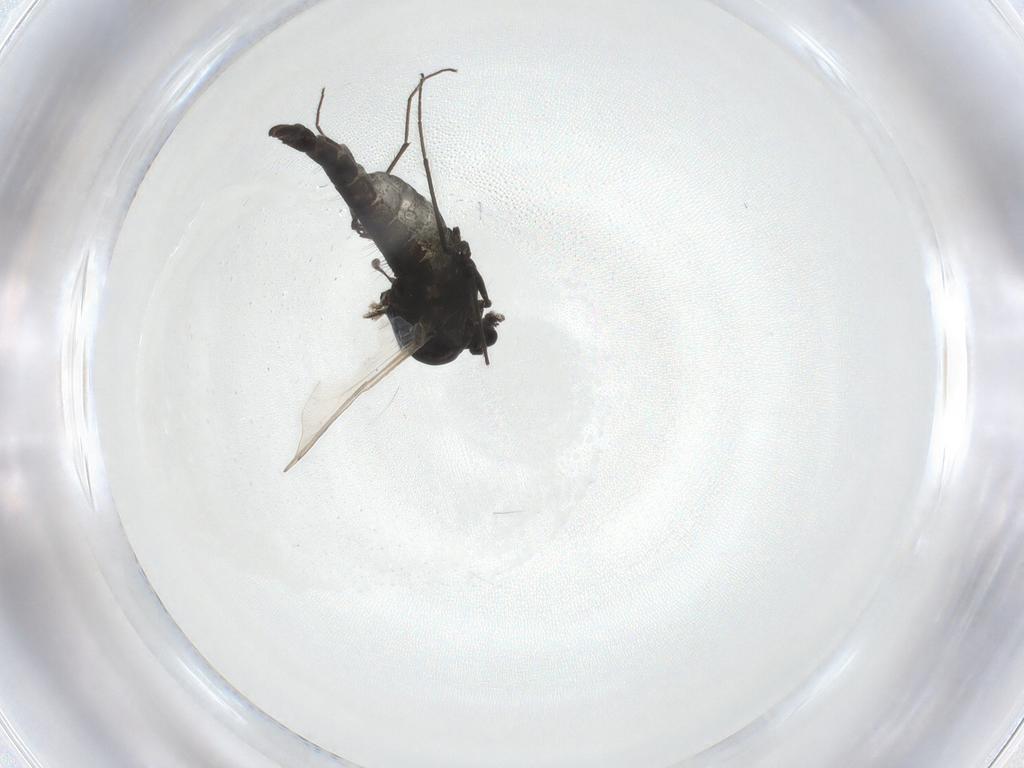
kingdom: Animalia
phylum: Arthropoda
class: Insecta
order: Diptera
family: Chironomidae
